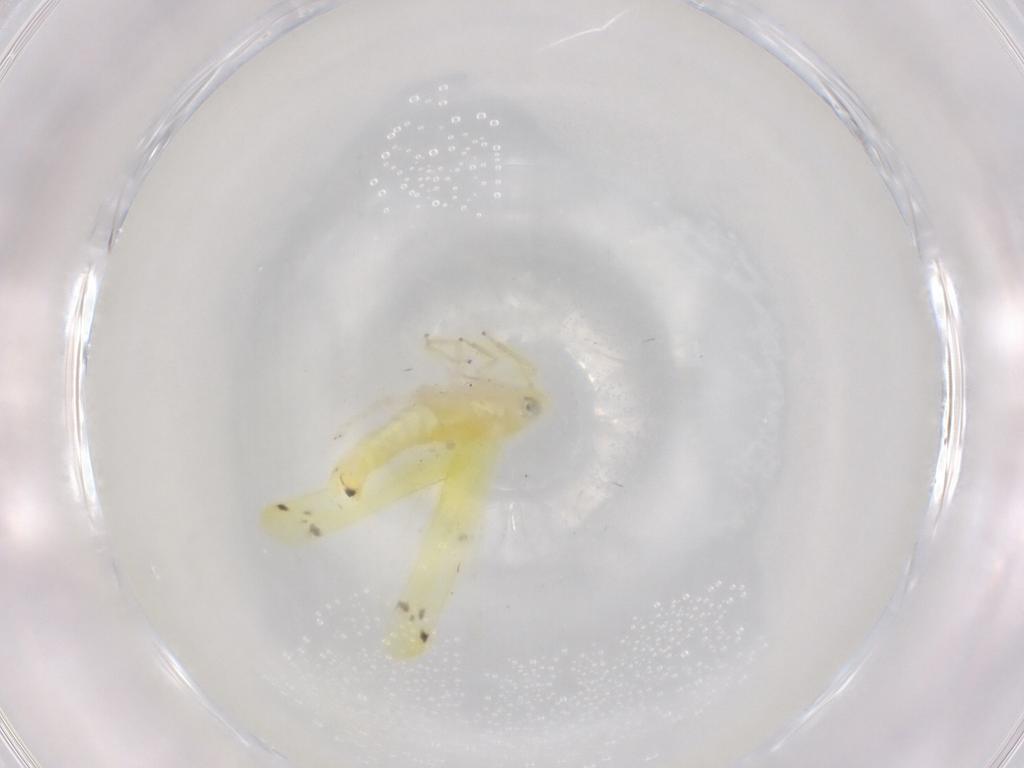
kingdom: Animalia
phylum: Arthropoda
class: Insecta
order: Hemiptera
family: Cicadellidae
